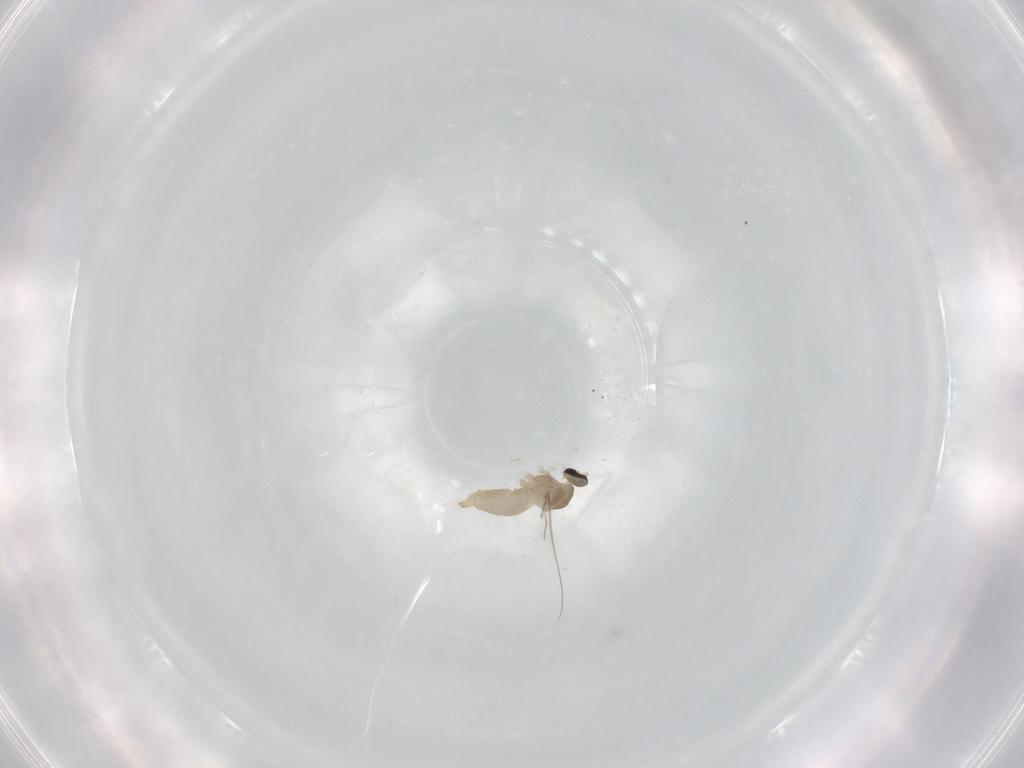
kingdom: Animalia
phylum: Arthropoda
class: Insecta
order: Diptera
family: Cecidomyiidae
